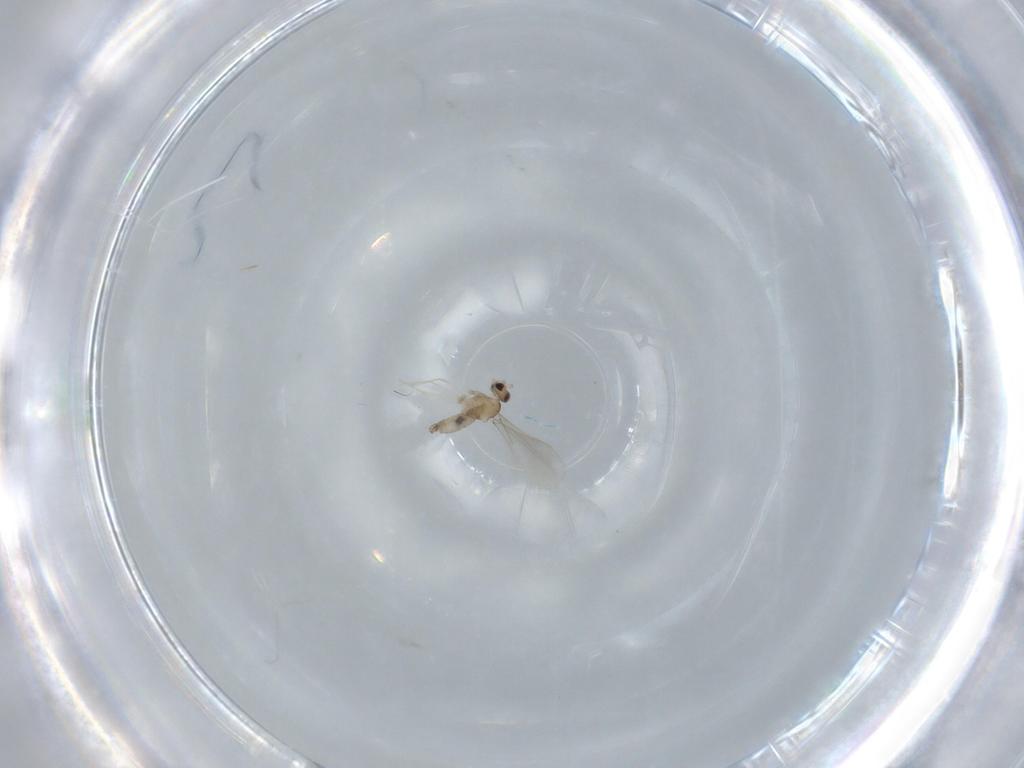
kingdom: Animalia
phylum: Arthropoda
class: Insecta
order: Diptera
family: Cecidomyiidae
